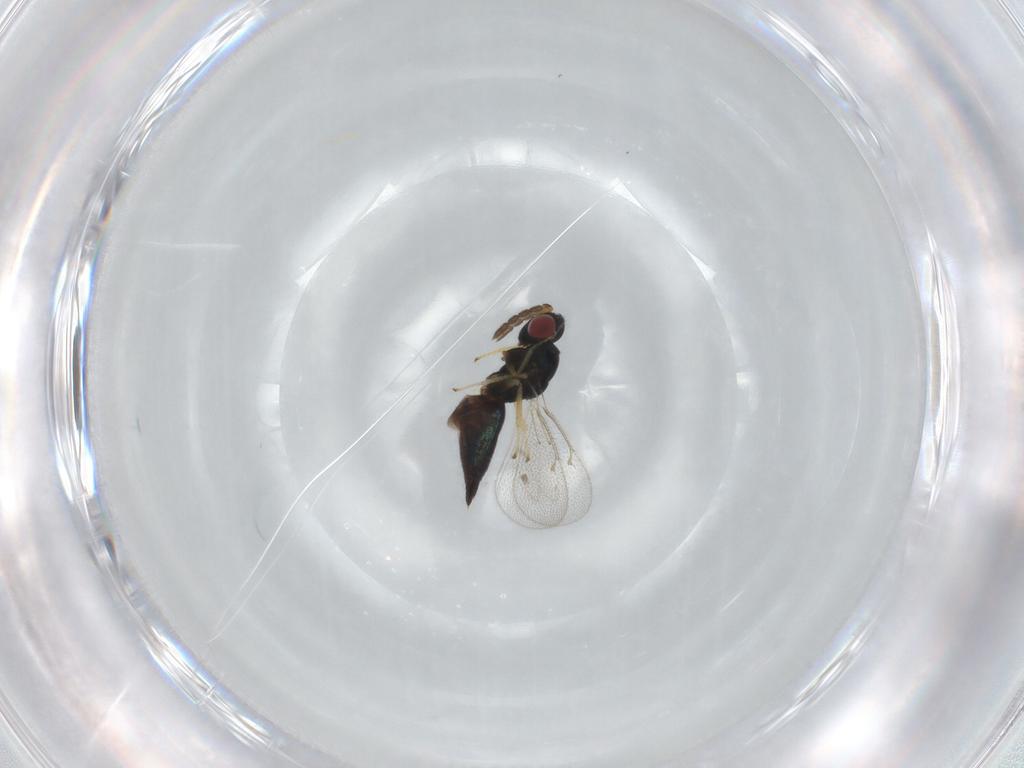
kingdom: Animalia
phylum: Arthropoda
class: Insecta
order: Hymenoptera
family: Eulophidae
